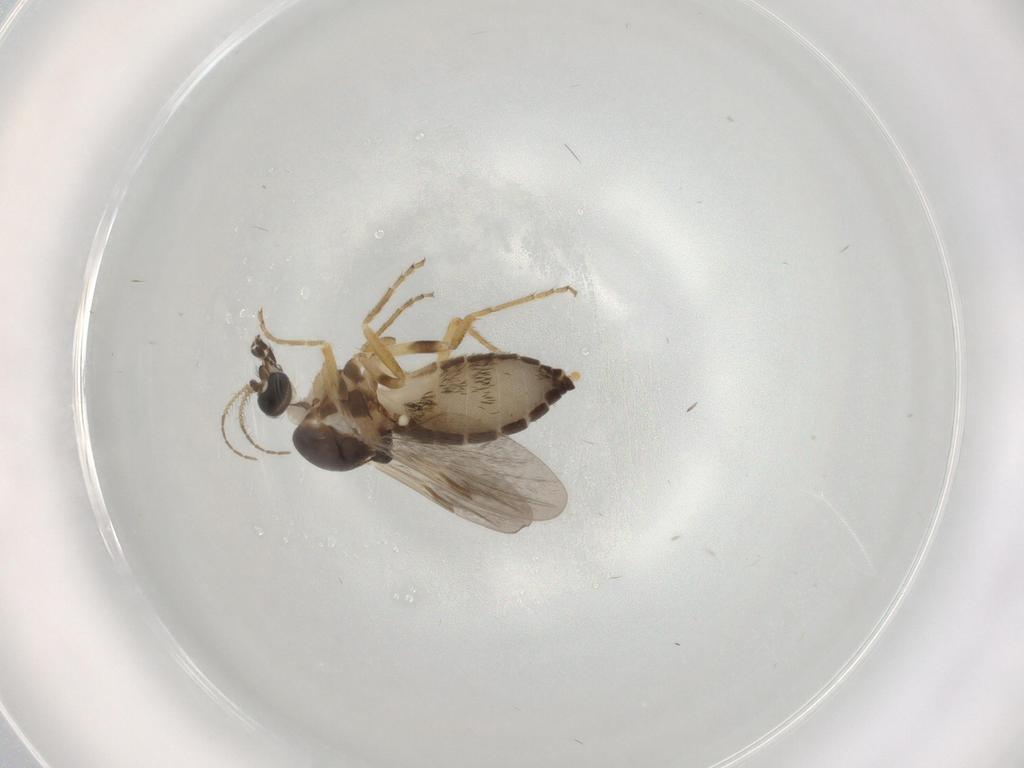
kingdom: Animalia
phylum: Arthropoda
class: Insecta
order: Diptera
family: Ceratopogonidae
